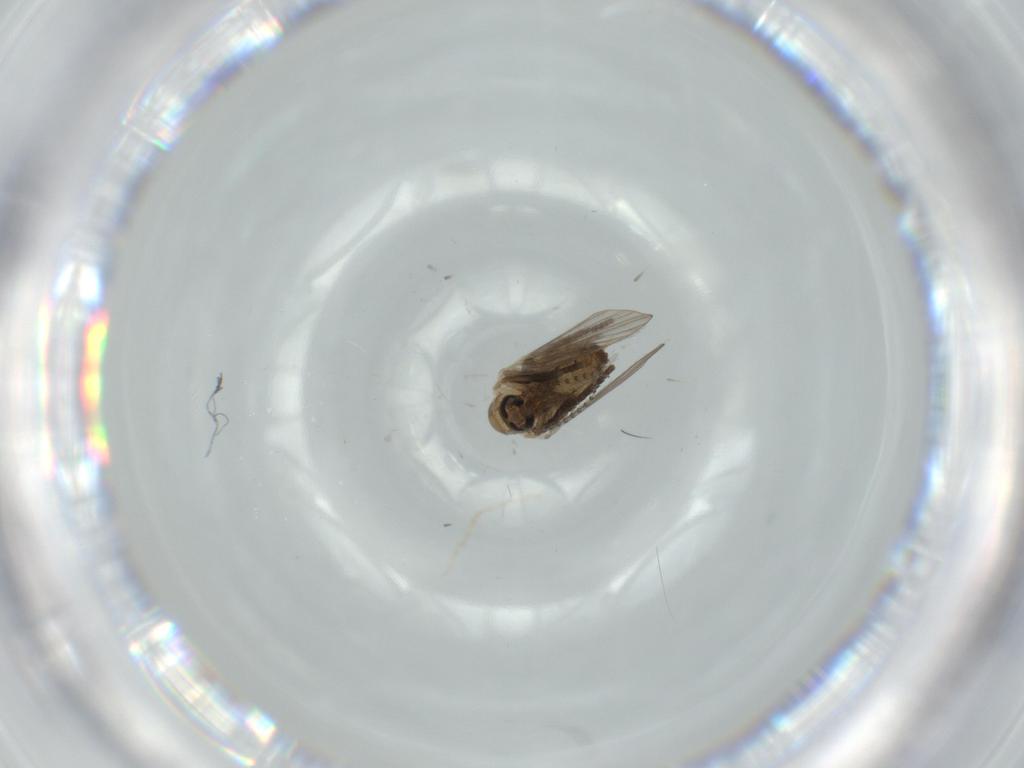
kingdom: Animalia
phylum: Arthropoda
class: Insecta
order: Diptera
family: Psychodidae
